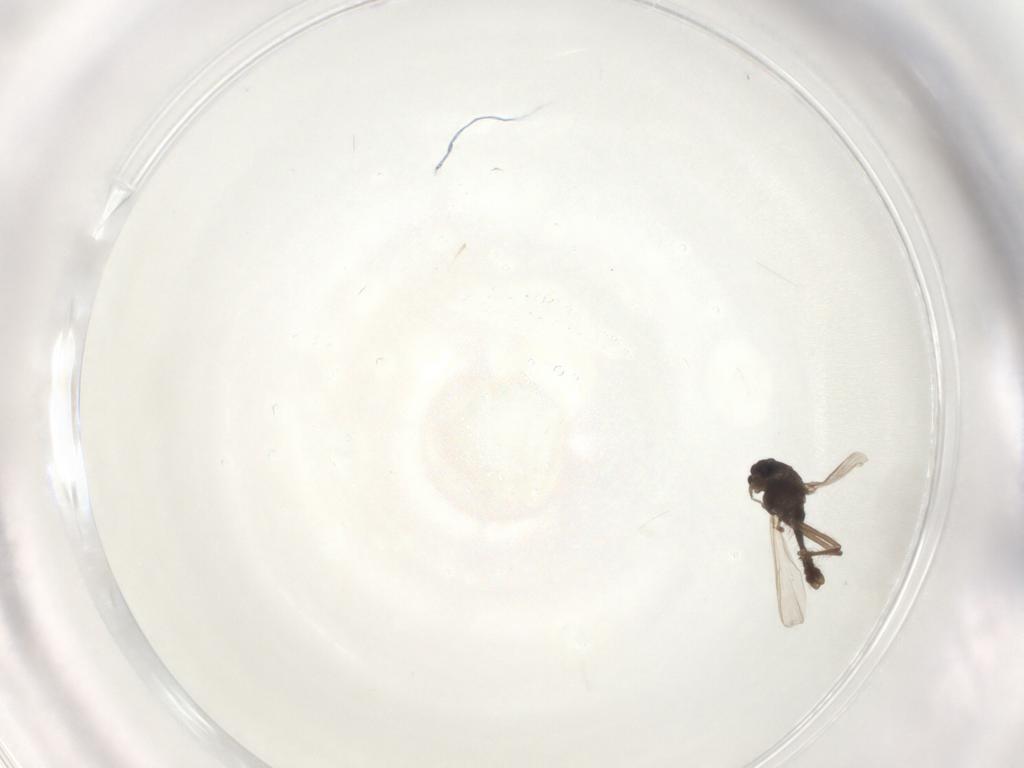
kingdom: Animalia
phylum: Arthropoda
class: Insecta
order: Diptera
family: Chironomidae
